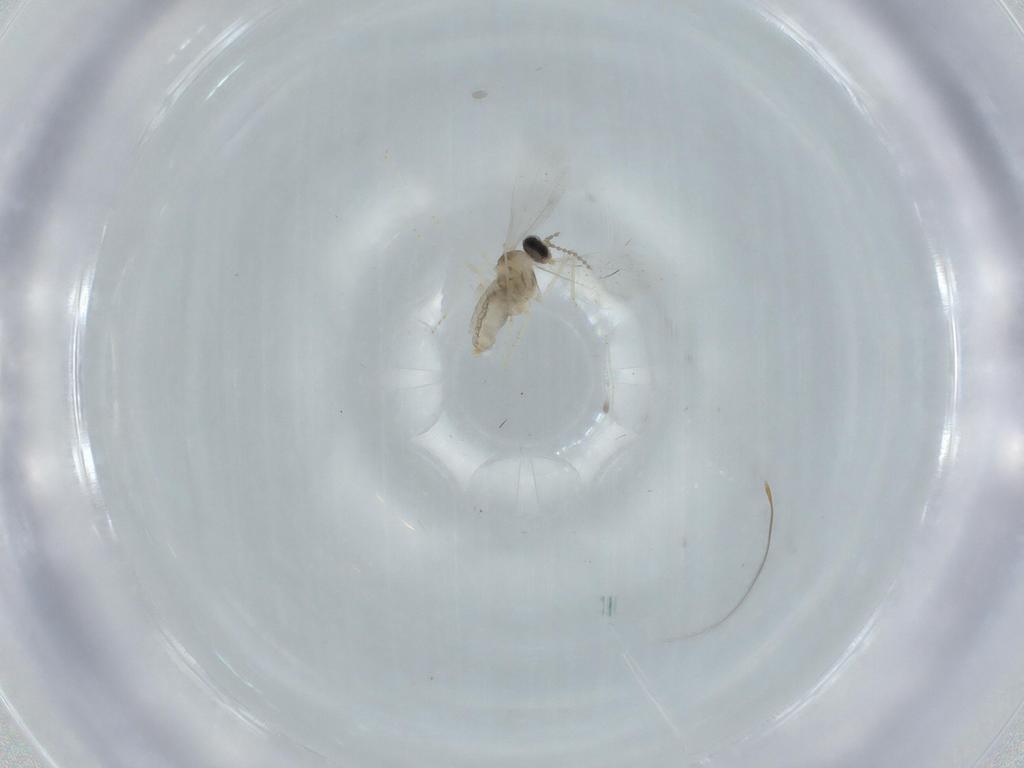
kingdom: Animalia
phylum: Arthropoda
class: Insecta
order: Diptera
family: Cecidomyiidae
